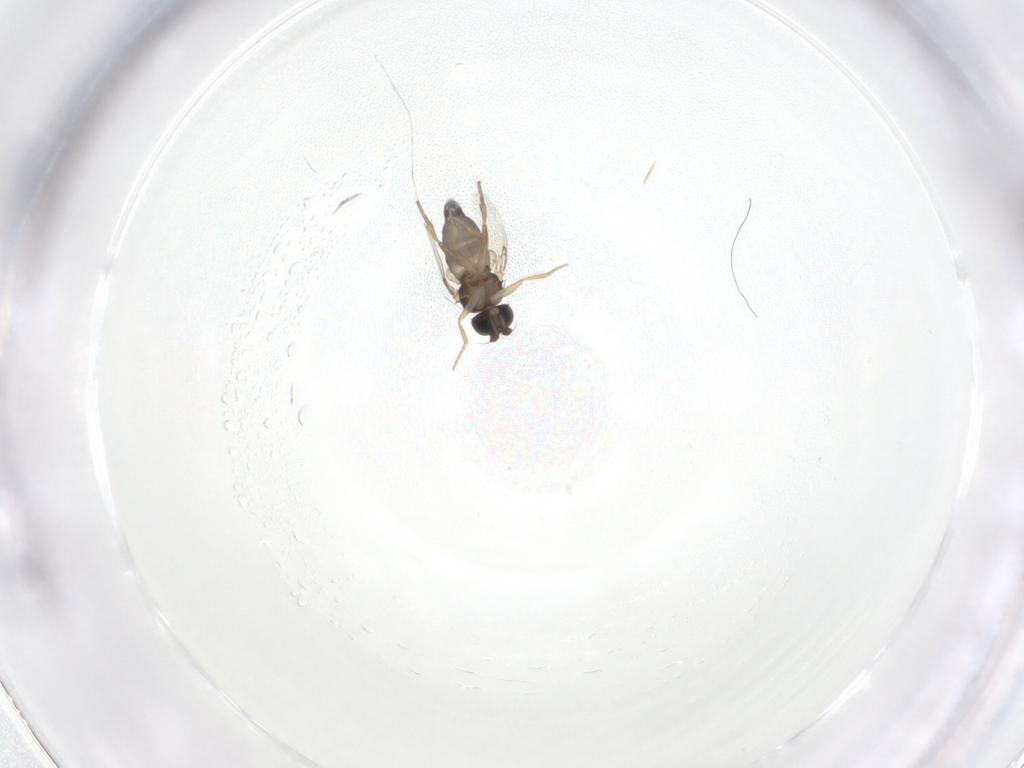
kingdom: Animalia
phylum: Arthropoda
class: Insecta
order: Diptera
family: Phoridae
